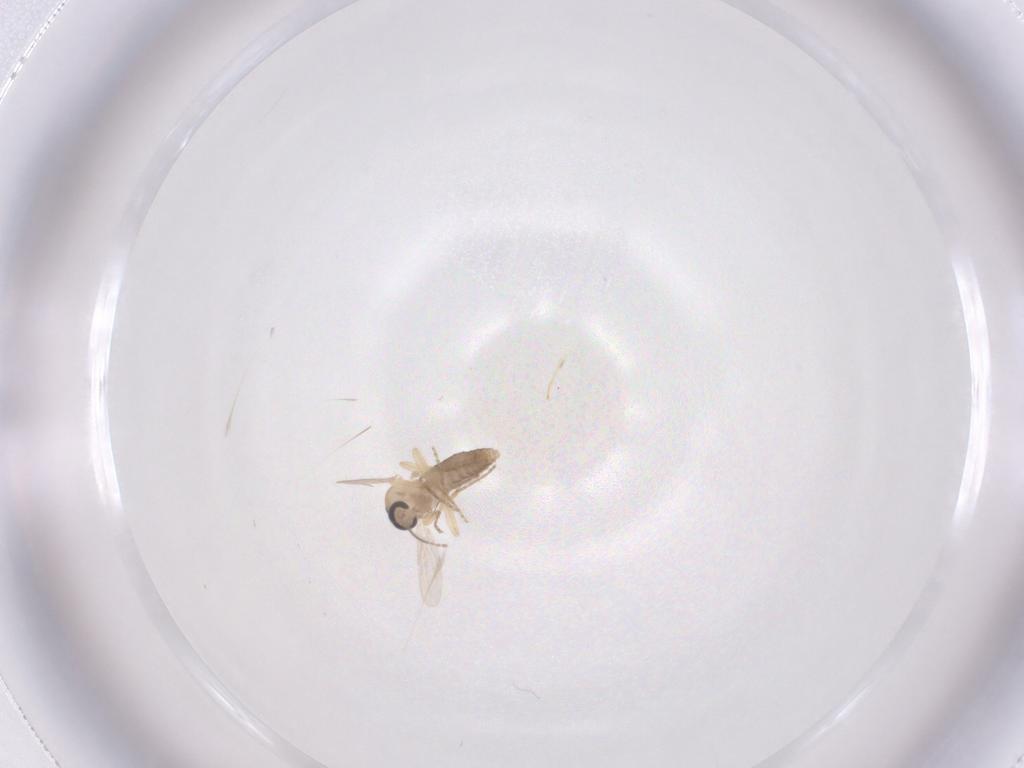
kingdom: Animalia
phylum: Arthropoda
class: Insecta
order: Diptera
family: Ceratopogonidae
